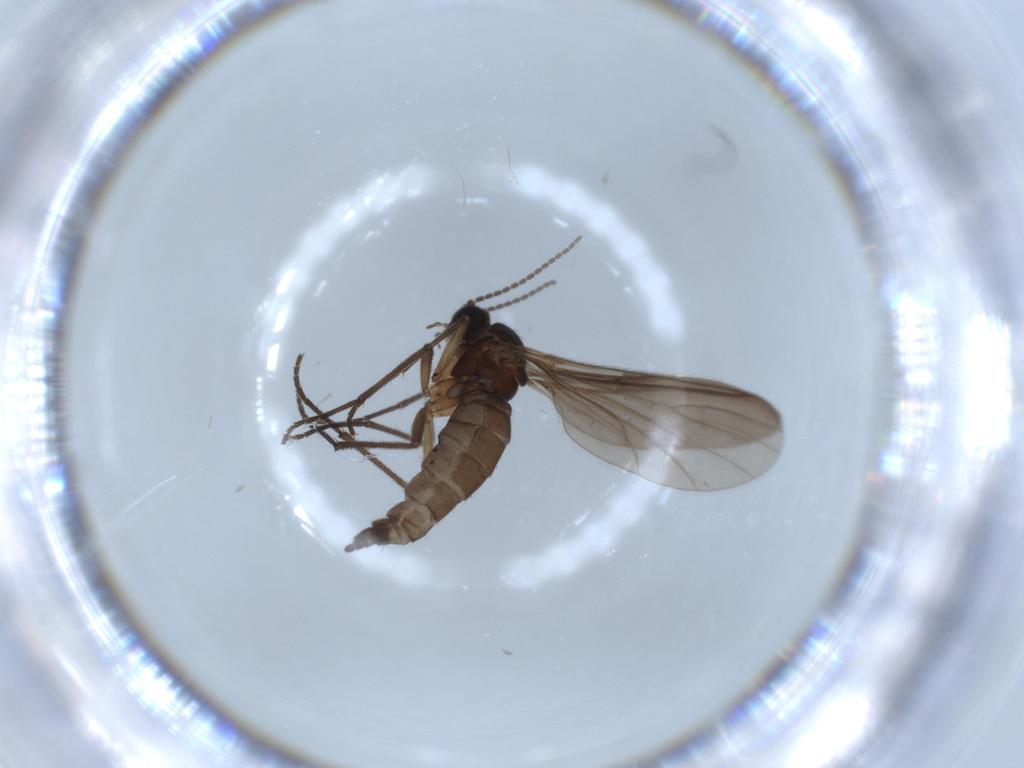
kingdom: Animalia
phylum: Arthropoda
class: Insecta
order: Diptera
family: Sciaridae
